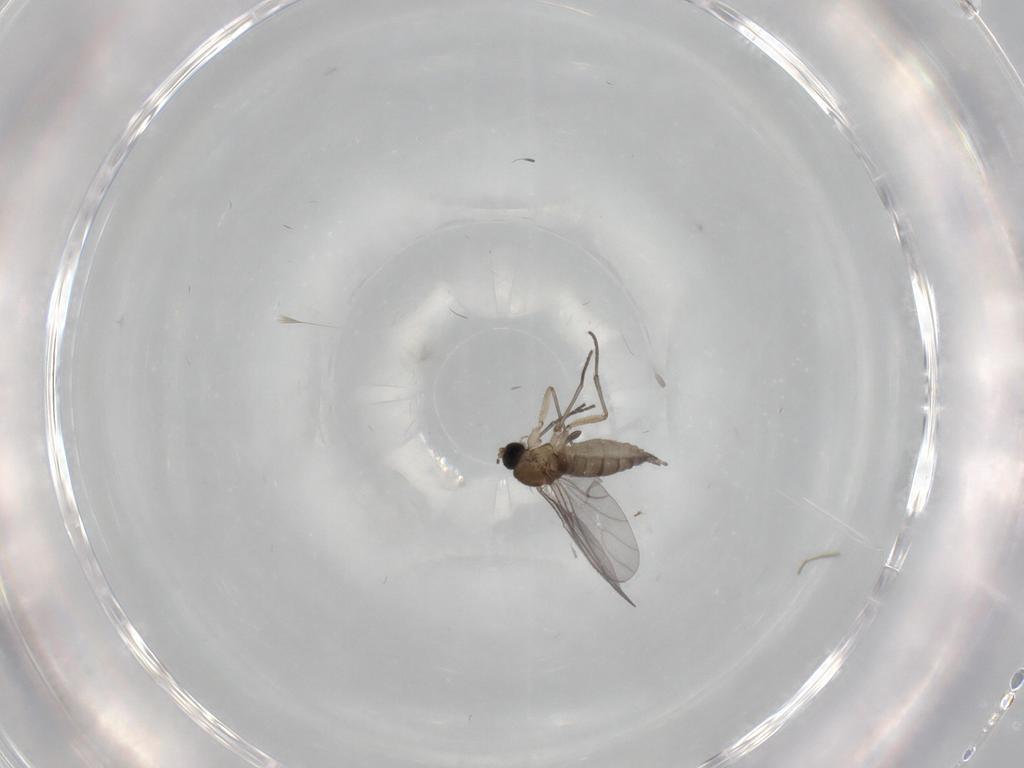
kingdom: Animalia
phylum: Arthropoda
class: Insecta
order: Diptera
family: Sciaridae
